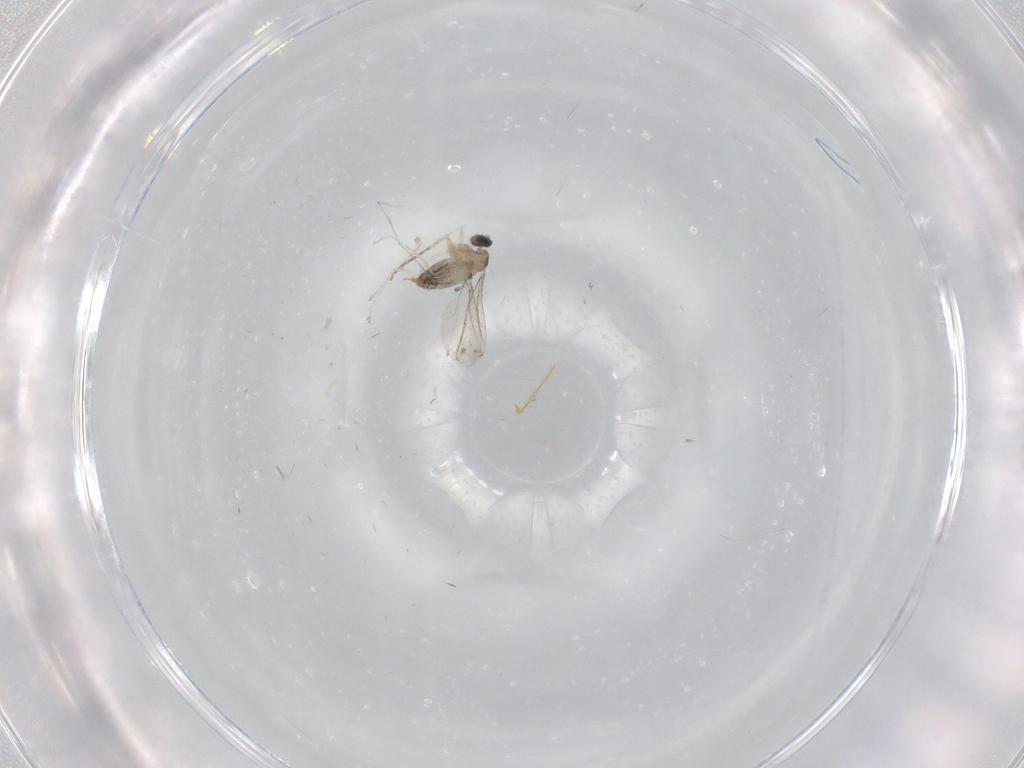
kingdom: Animalia
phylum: Arthropoda
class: Insecta
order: Diptera
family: Cecidomyiidae
